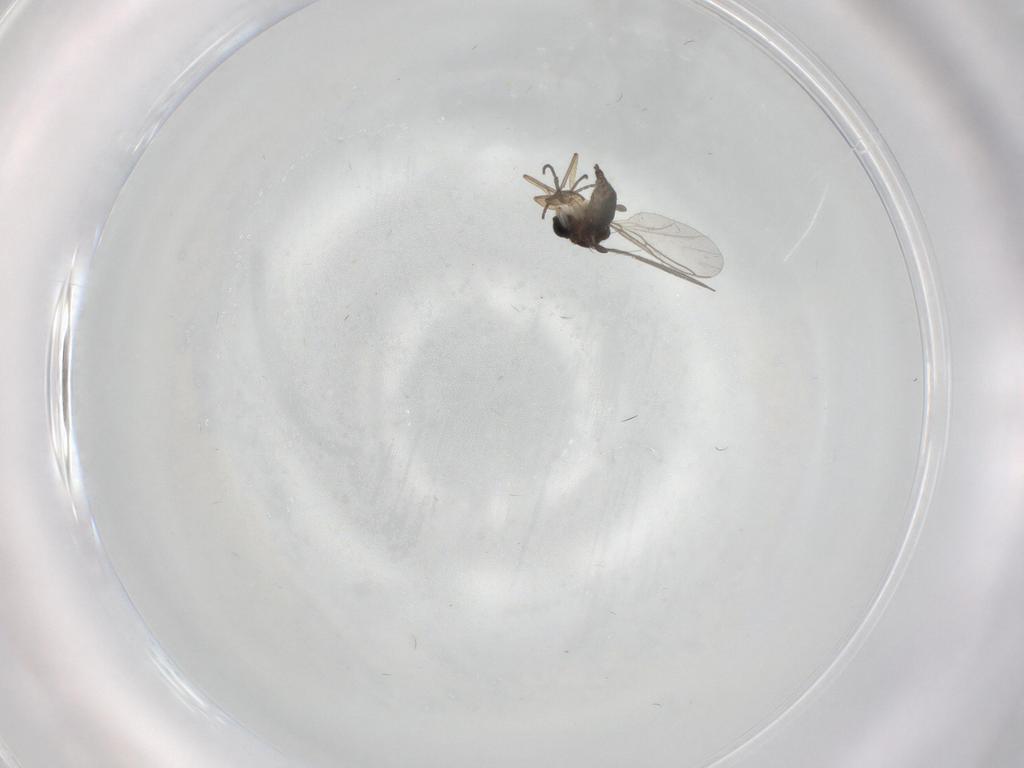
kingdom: Animalia
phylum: Arthropoda
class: Insecta
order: Diptera
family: Sciaridae
